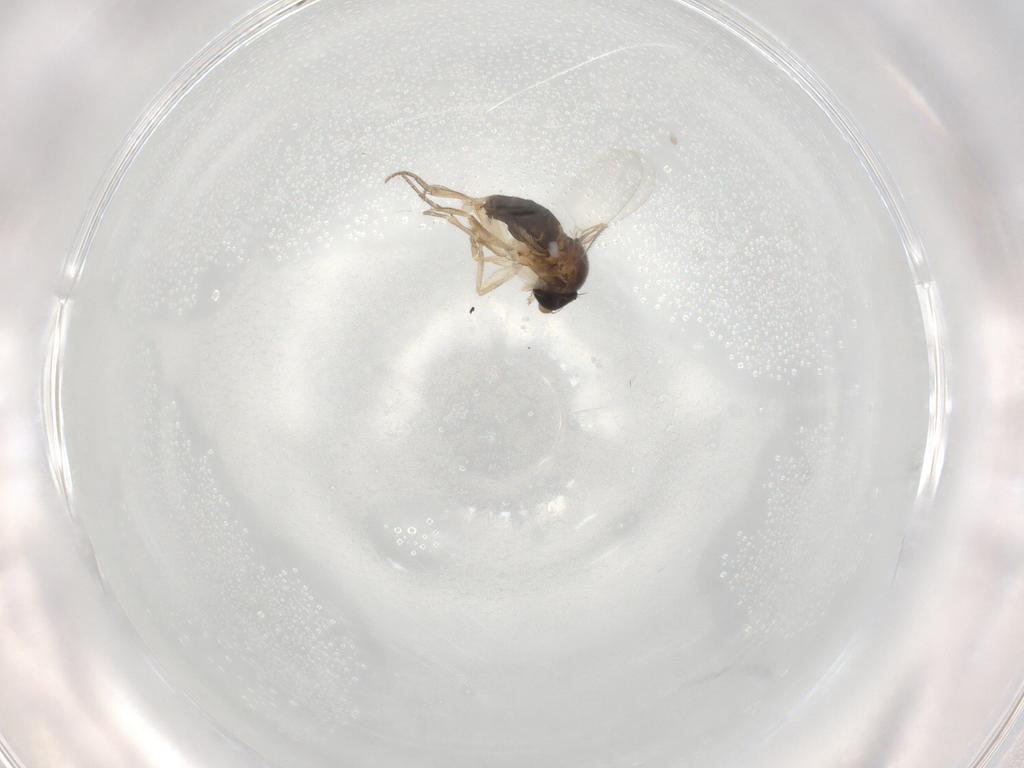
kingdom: Animalia
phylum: Arthropoda
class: Insecta
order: Diptera
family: Phoridae
